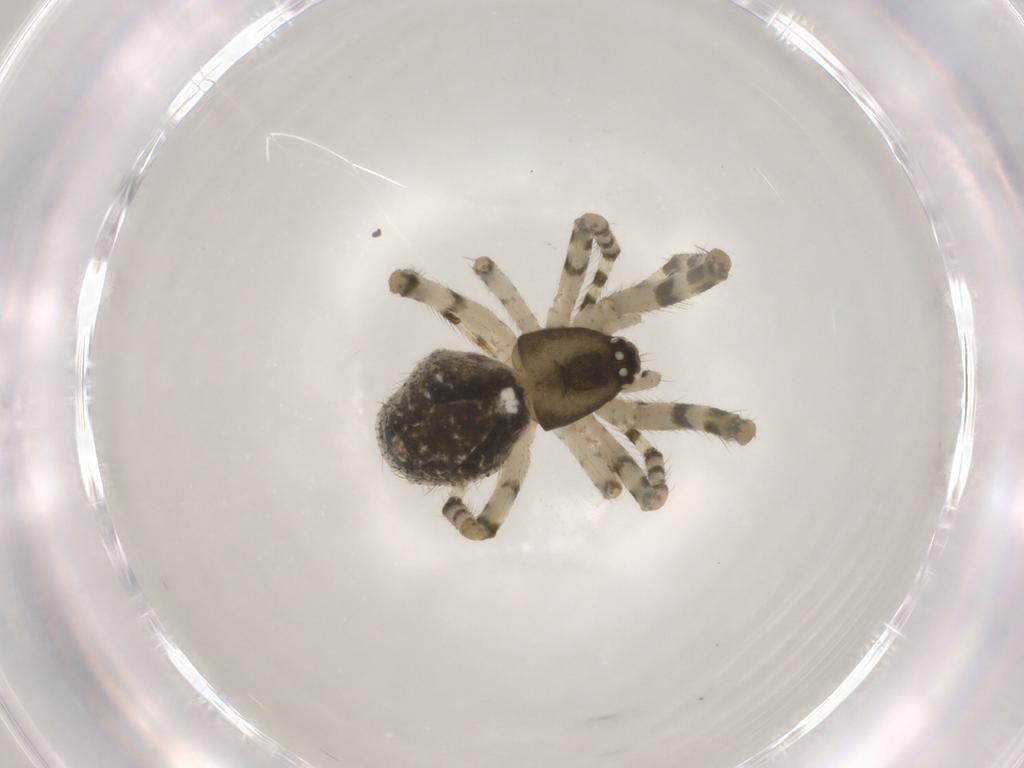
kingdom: Animalia
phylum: Arthropoda
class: Arachnida
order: Araneae
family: Theridiidae
